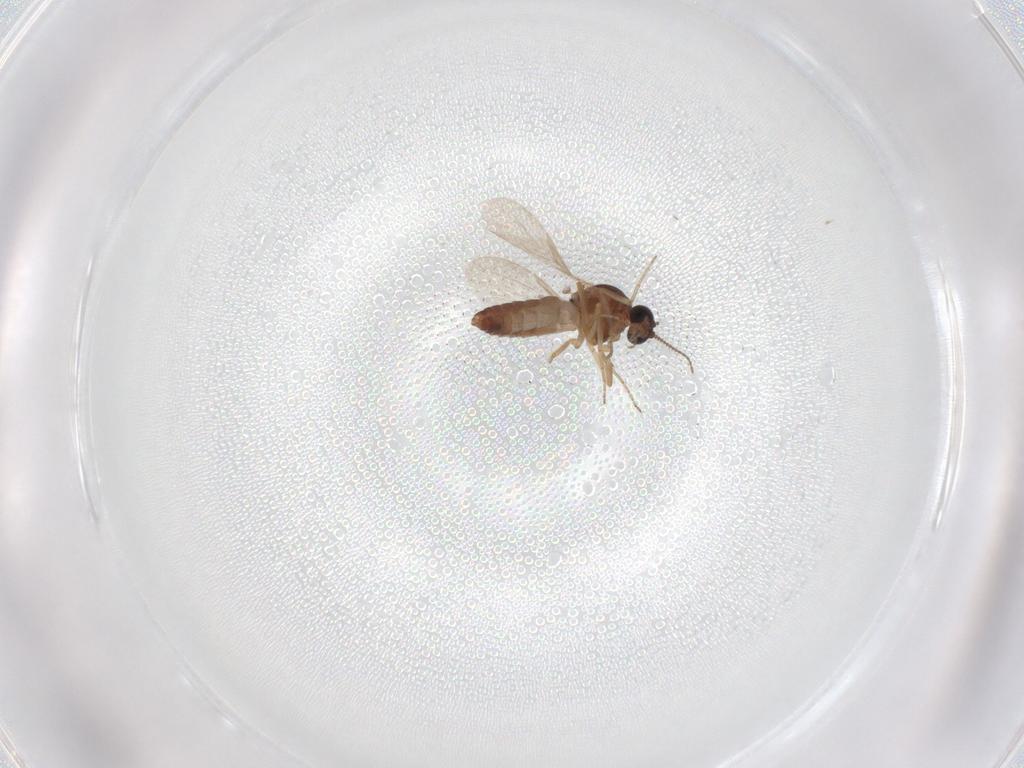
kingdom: Animalia
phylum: Arthropoda
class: Insecta
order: Diptera
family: Ceratopogonidae
